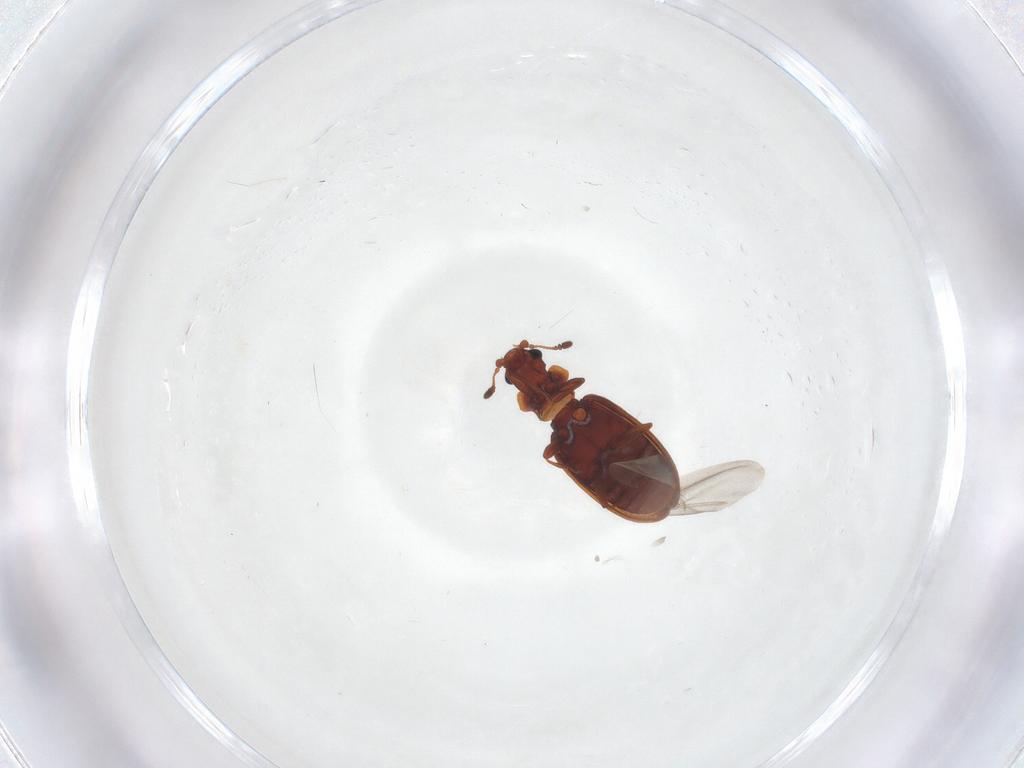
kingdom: Animalia
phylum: Arthropoda
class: Insecta
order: Coleoptera
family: Latridiidae
